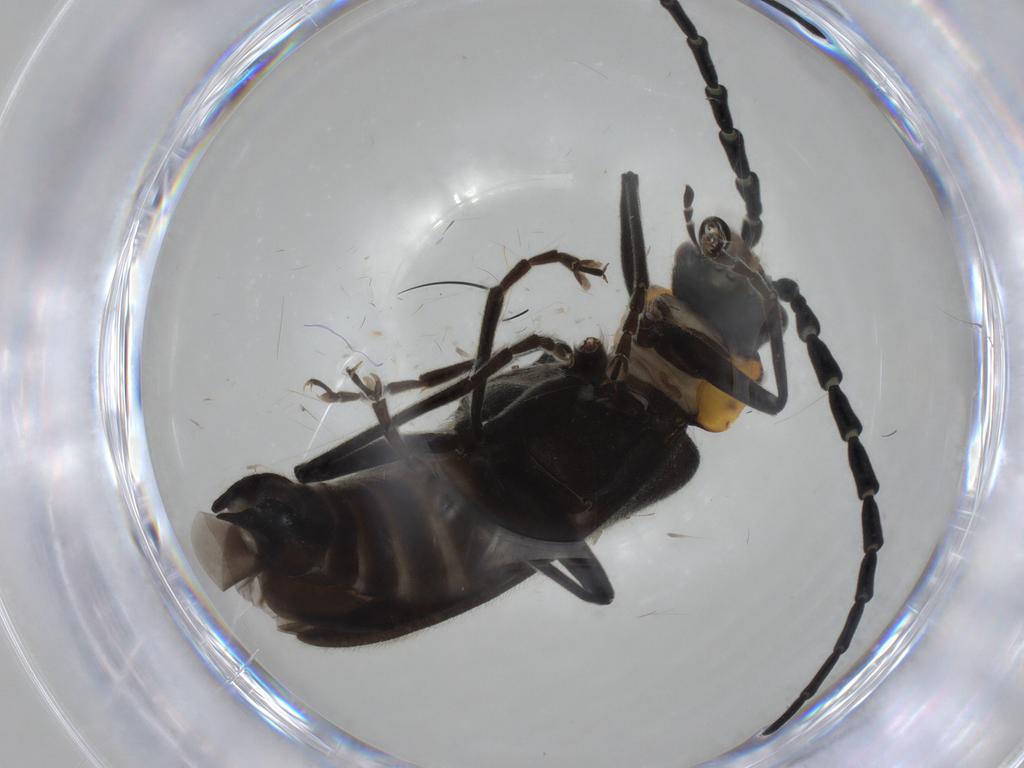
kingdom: Animalia
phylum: Arthropoda
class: Insecta
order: Coleoptera
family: Cantharidae
